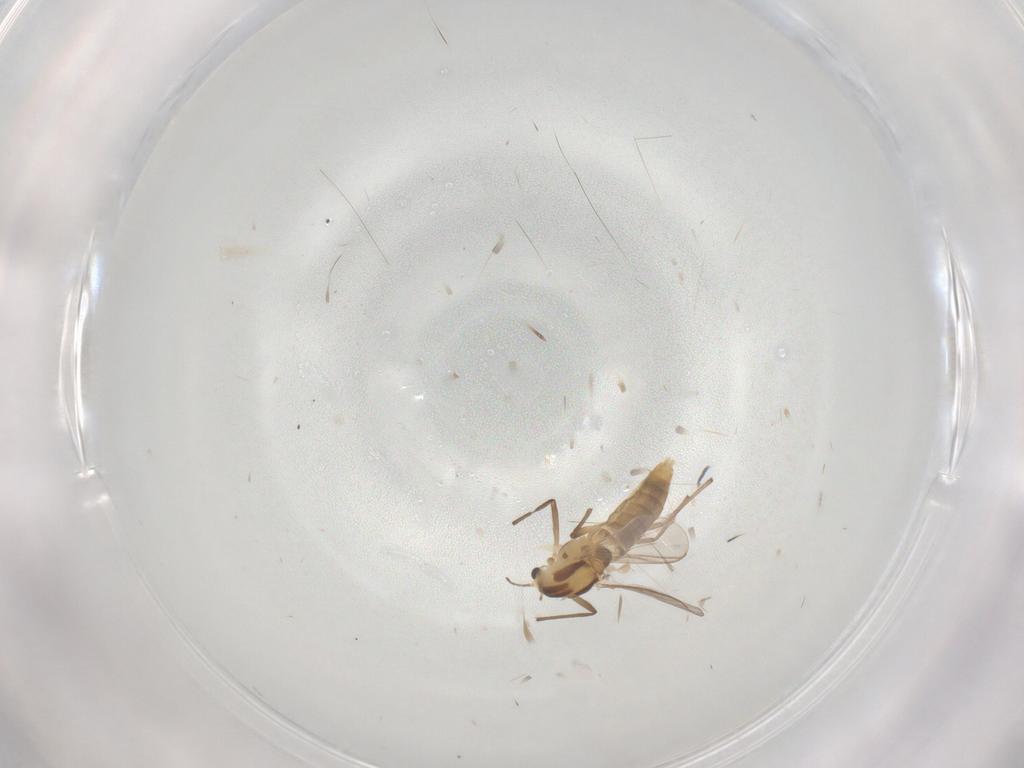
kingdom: Animalia
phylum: Arthropoda
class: Insecta
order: Diptera
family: Chironomidae
